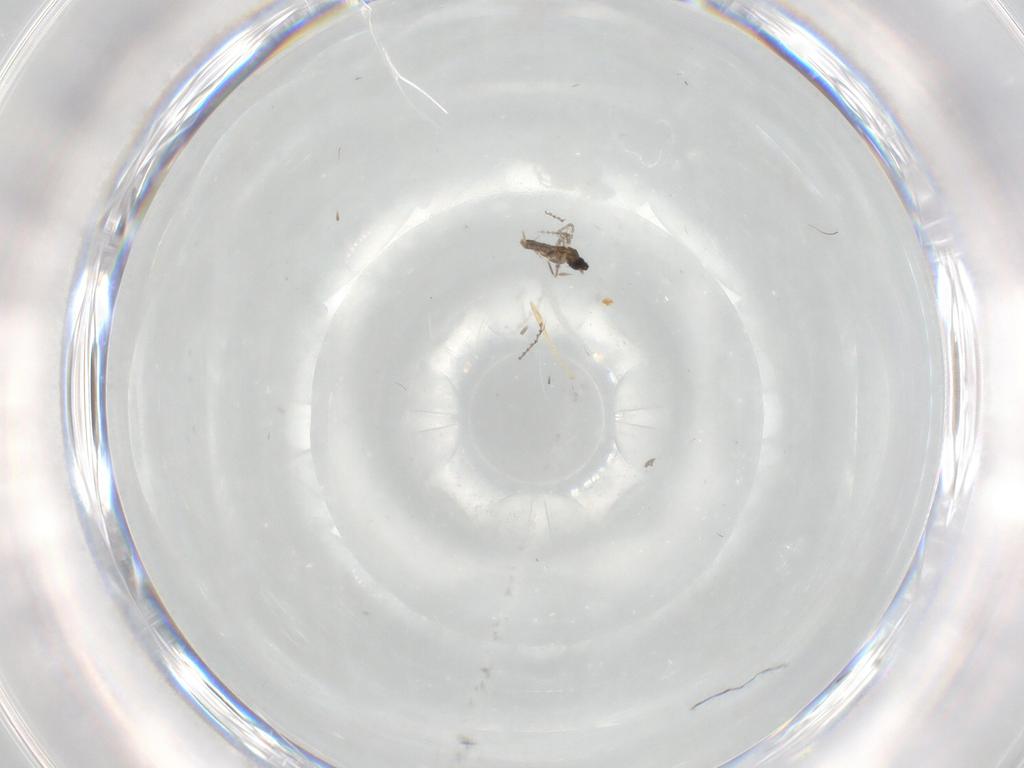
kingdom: Animalia
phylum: Arthropoda
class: Insecta
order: Diptera
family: Cecidomyiidae
